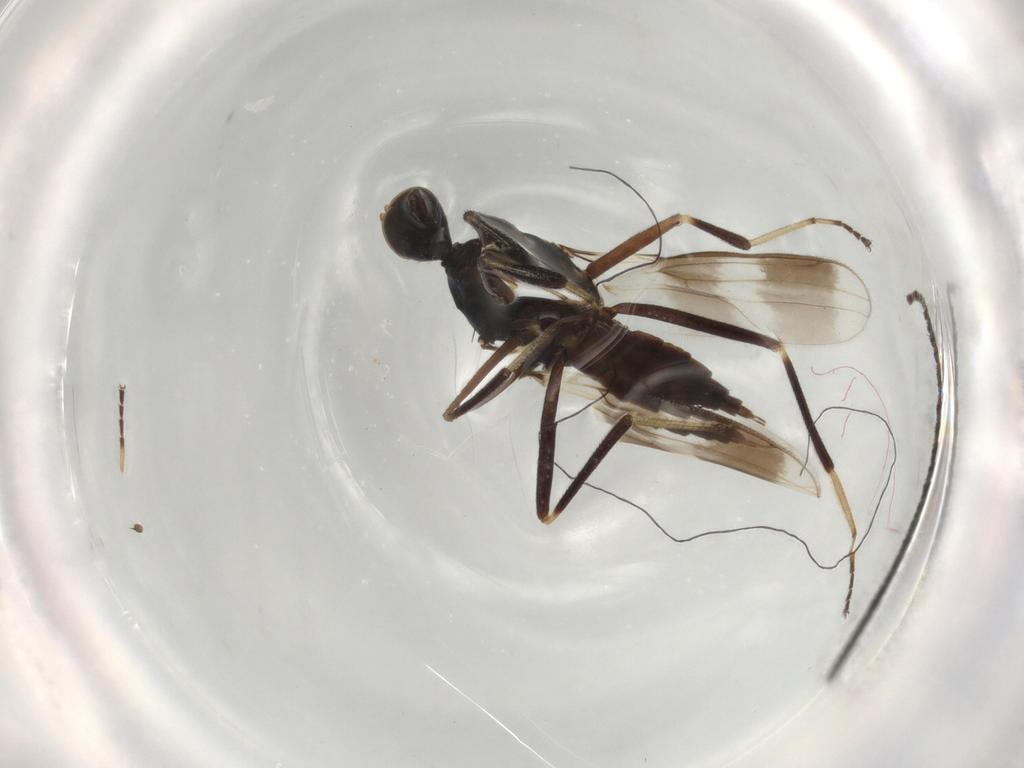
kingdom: Animalia
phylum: Arthropoda
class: Insecta
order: Diptera
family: Hybotidae
